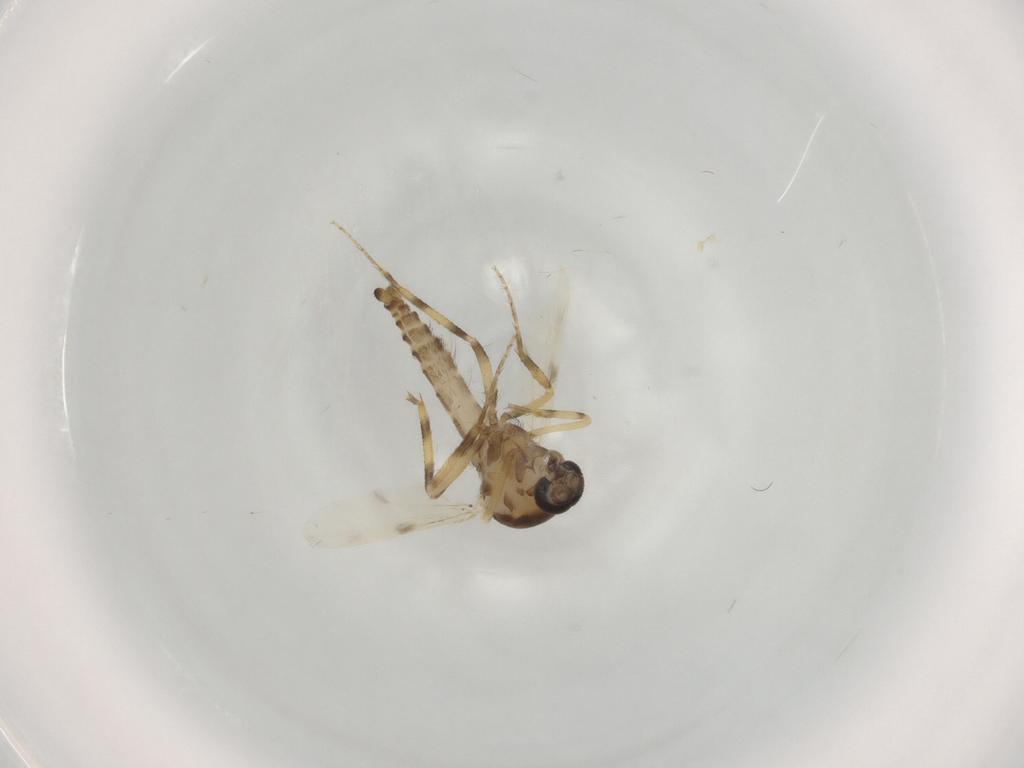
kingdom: Animalia
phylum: Arthropoda
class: Insecta
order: Diptera
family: Ceratopogonidae
